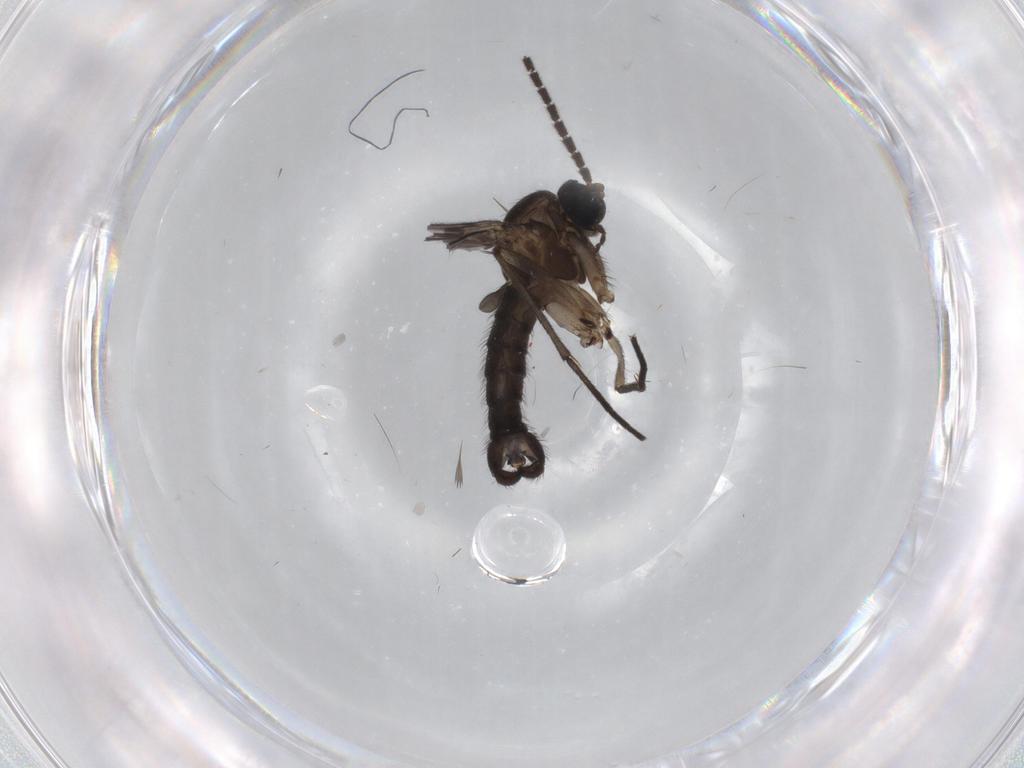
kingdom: Animalia
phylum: Arthropoda
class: Insecta
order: Diptera
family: Sciaridae
